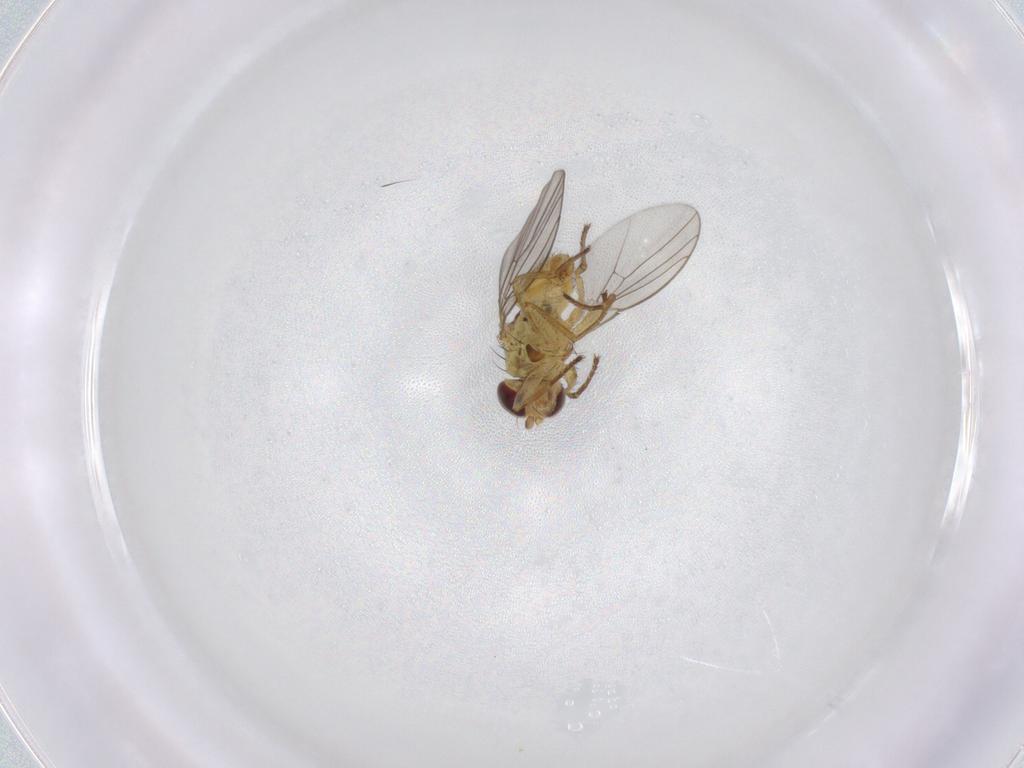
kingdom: Animalia
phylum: Arthropoda
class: Insecta
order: Diptera
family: Agromyzidae
